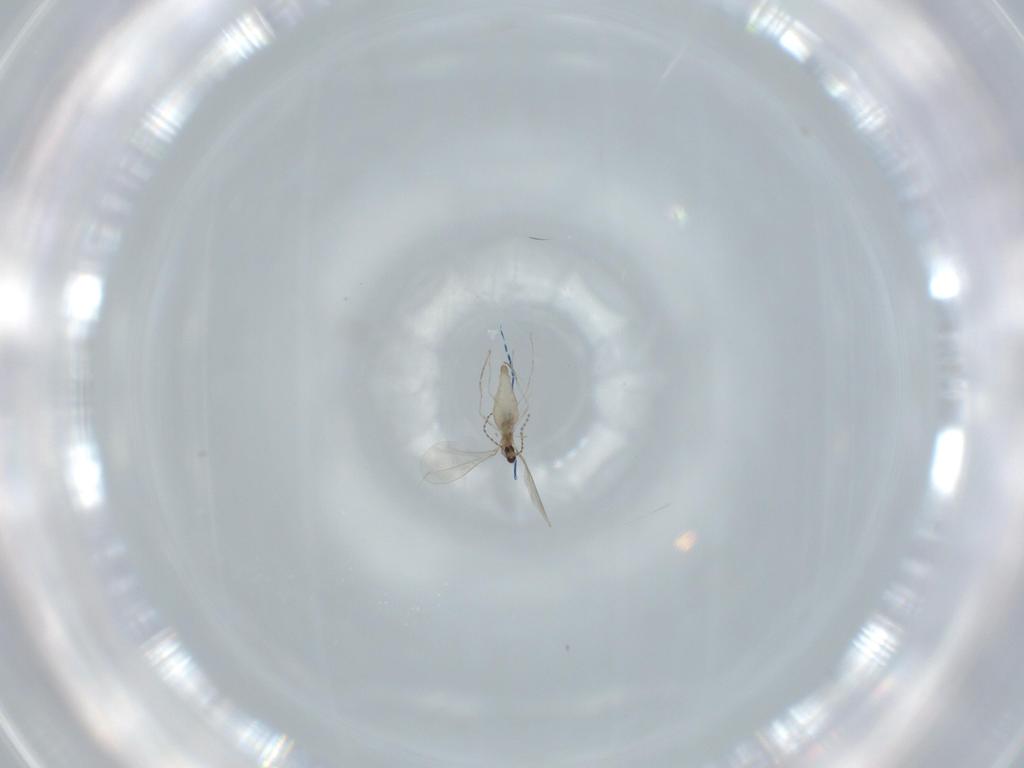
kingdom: Animalia
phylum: Arthropoda
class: Insecta
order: Diptera
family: Cecidomyiidae
